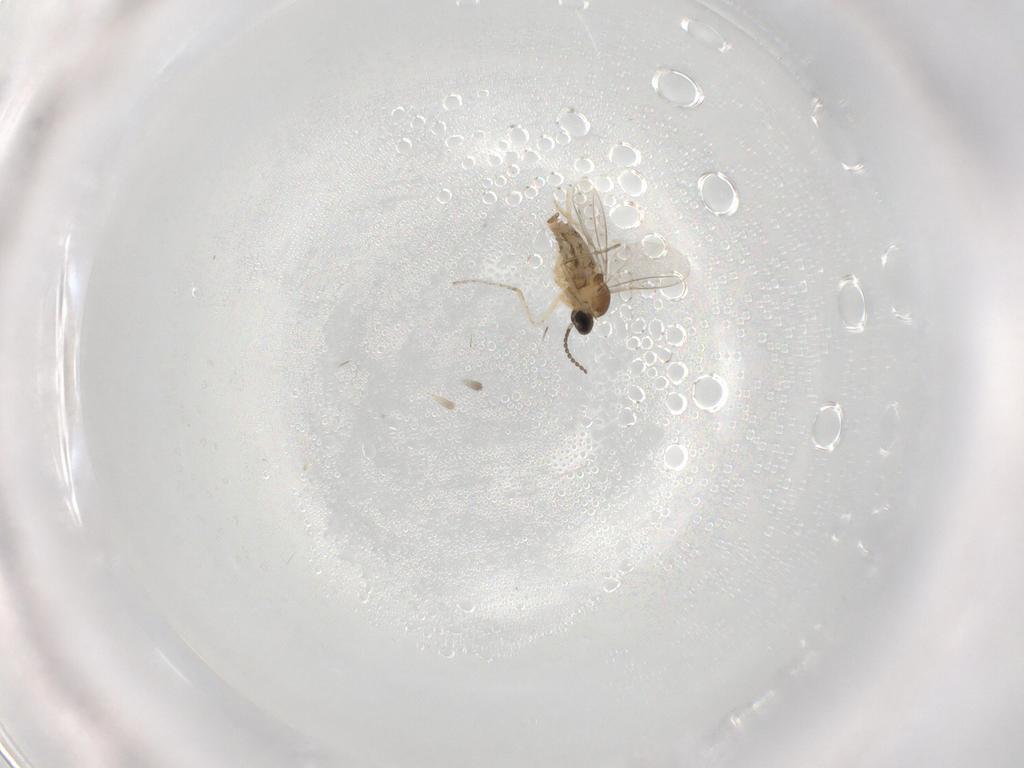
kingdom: Animalia
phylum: Arthropoda
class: Insecta
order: Diptera
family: Cecidomyiidae
